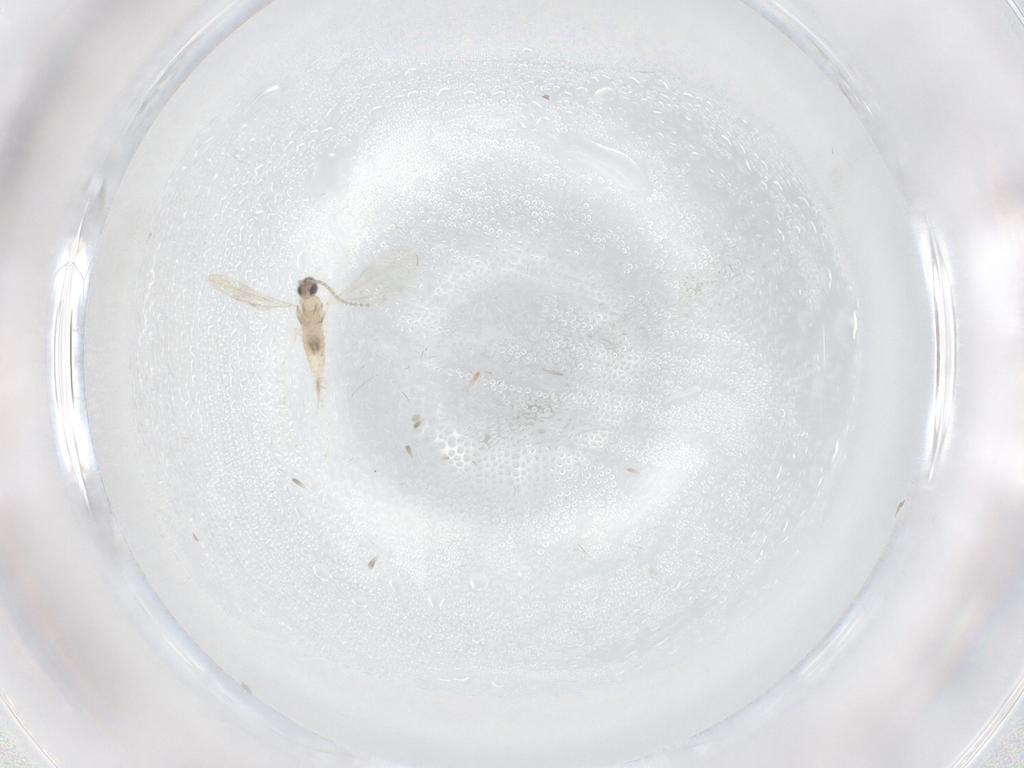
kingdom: Animalia
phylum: Arthropoda
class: Insecta
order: Diptera
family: Cecidomyiidae
